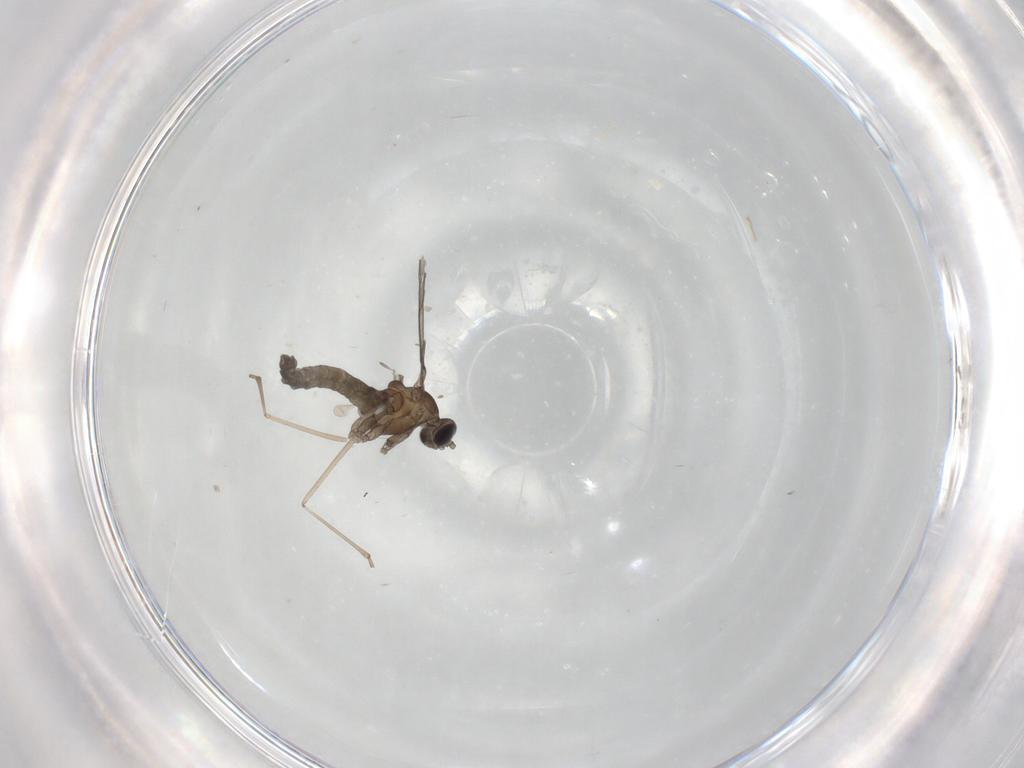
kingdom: Animalia
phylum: Arthropoda
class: Insecta
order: Diptera
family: Cecidomyiidae
